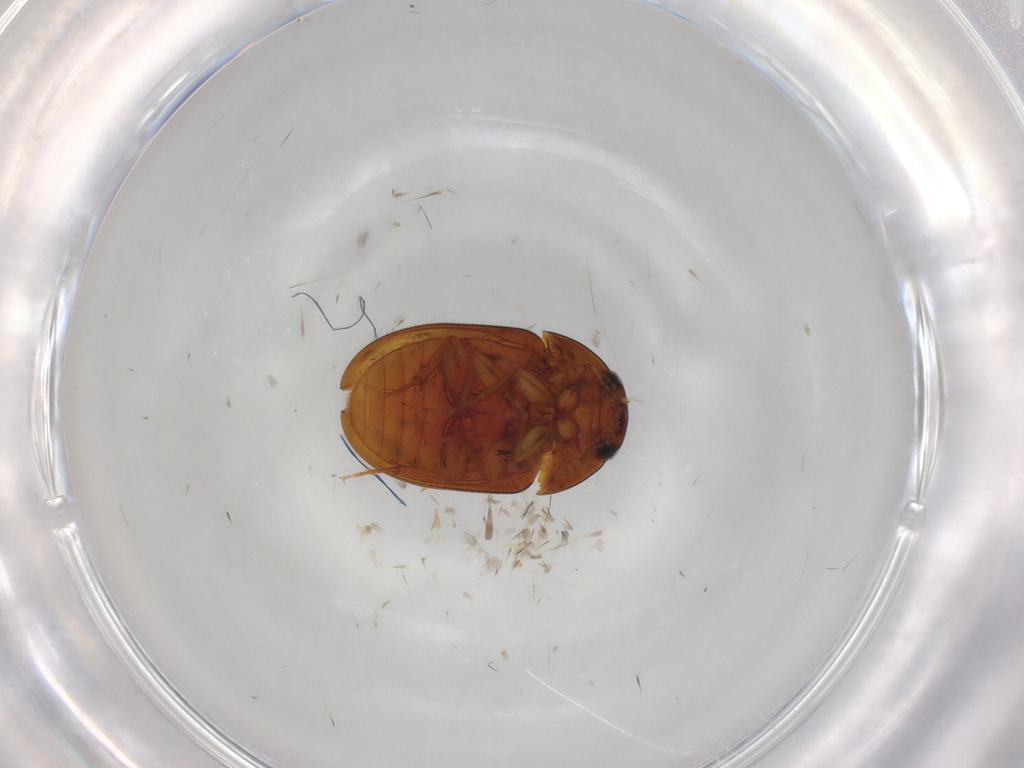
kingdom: Animalia
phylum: Arthropoda
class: Insecta
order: Coleoptera
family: Phalacridae
